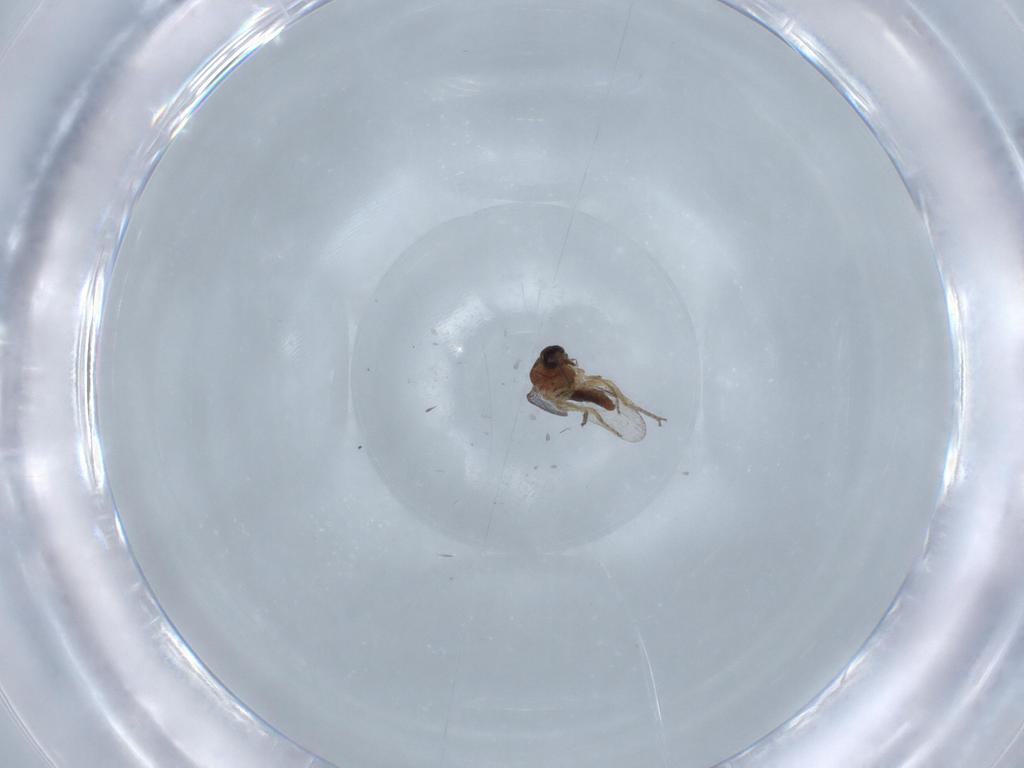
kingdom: Animalia
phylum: Arthropoda
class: Insecta
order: Diptera
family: Ceratopogonidae
